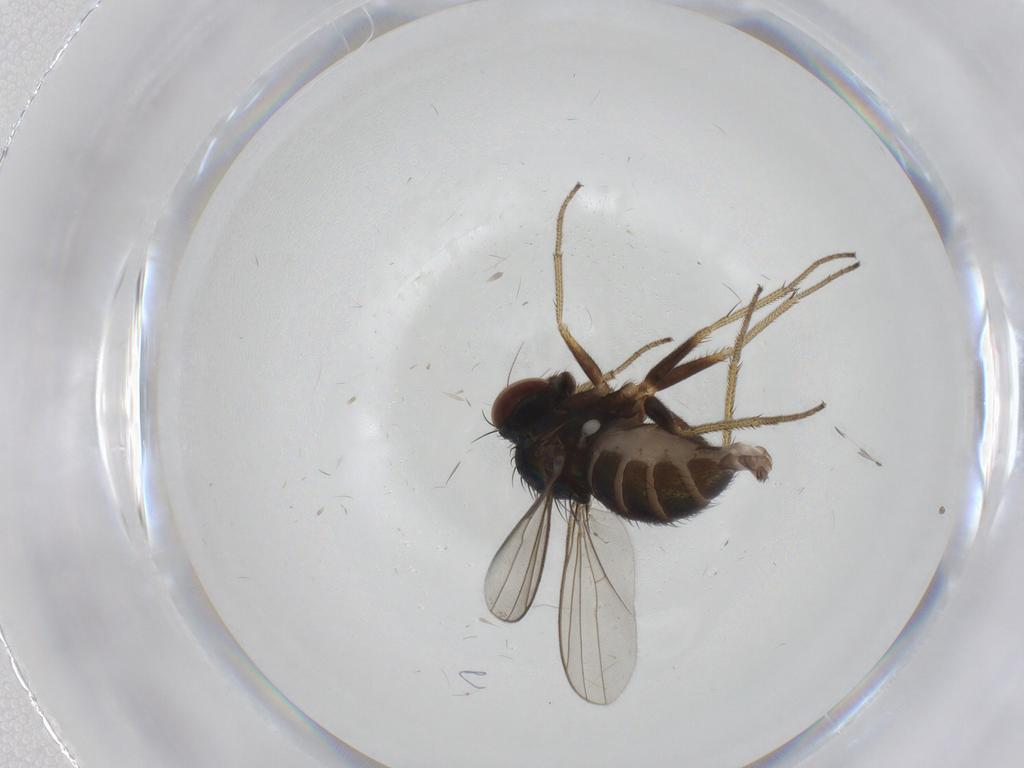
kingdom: Animalia
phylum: Arthropoda
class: Insecta
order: Diptera
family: Dolichopodidae
